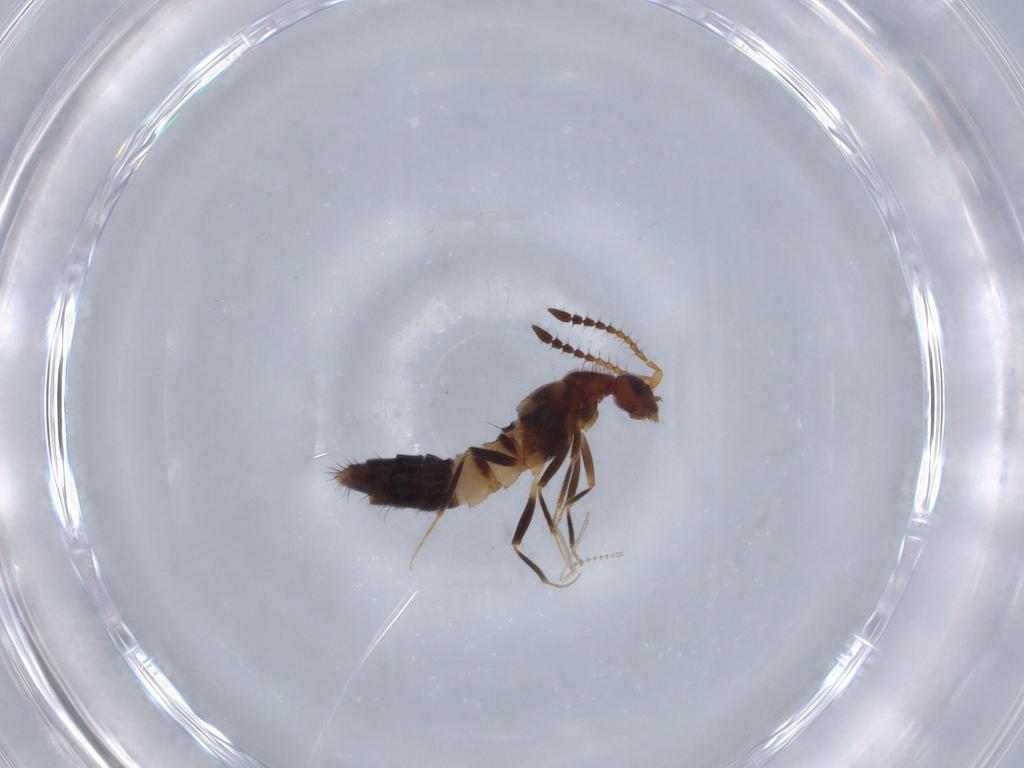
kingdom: Animalia
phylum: Arthropoda
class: Insecta
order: Coleoptera
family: Staphylinidae
